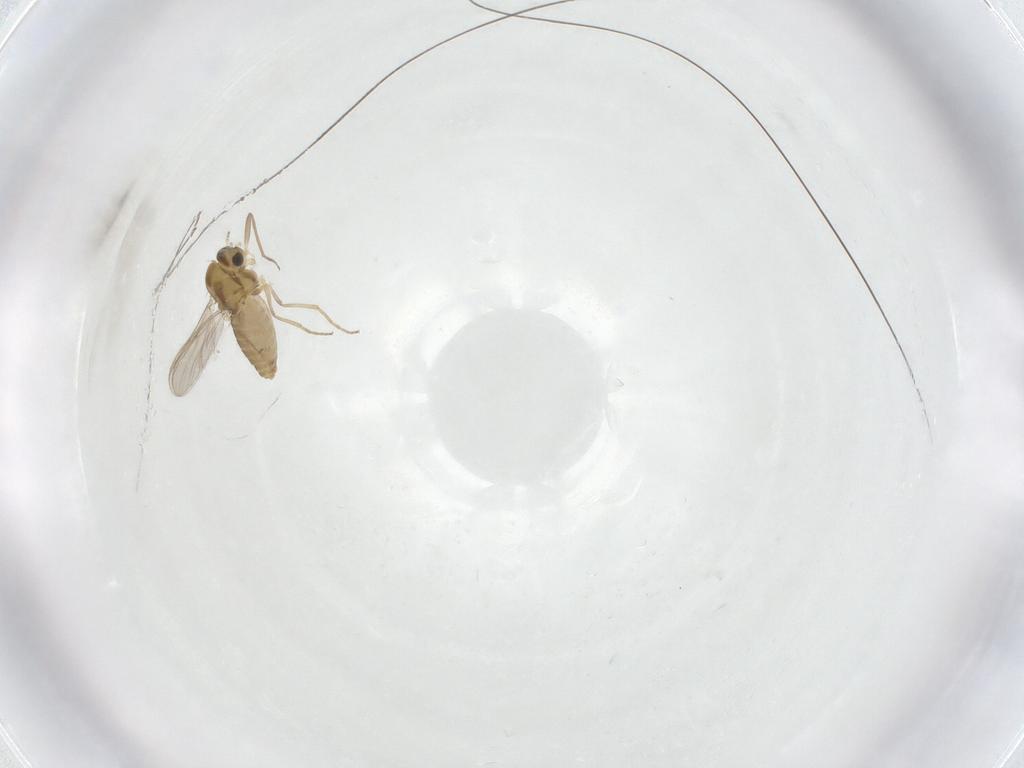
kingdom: Animalia
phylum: Arthropoda
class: Insecta
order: Diptera
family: Chironomidae
